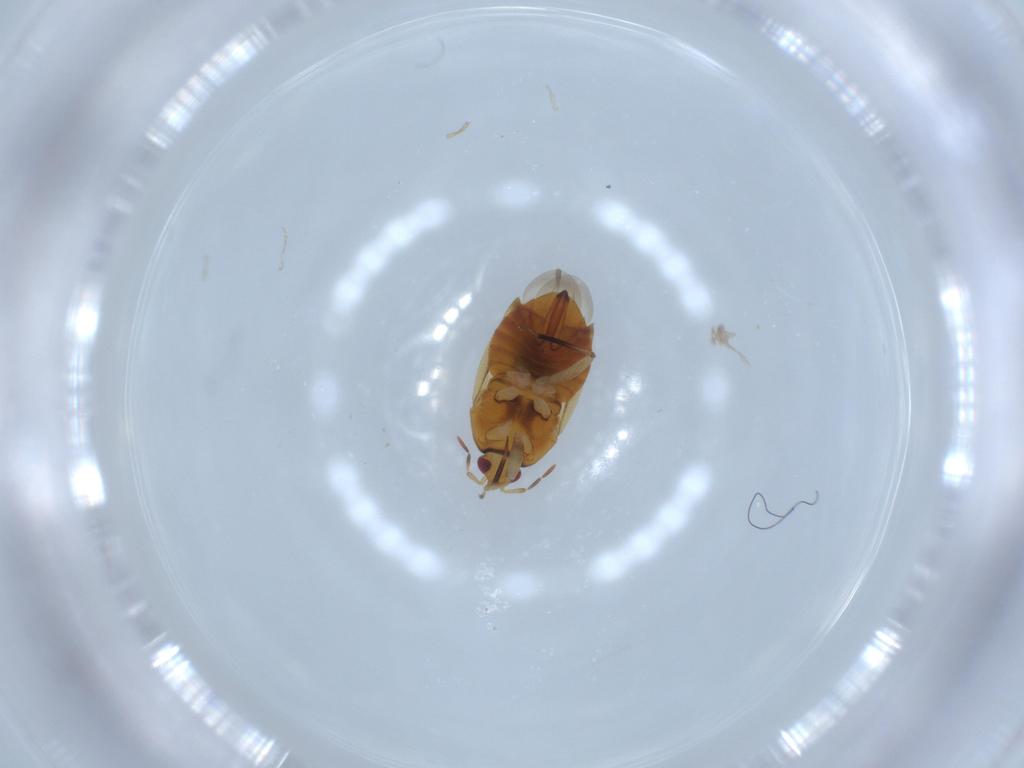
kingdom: Animalia
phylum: Arthropoda
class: Insecta
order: Hemiptera
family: Anthocoridae
